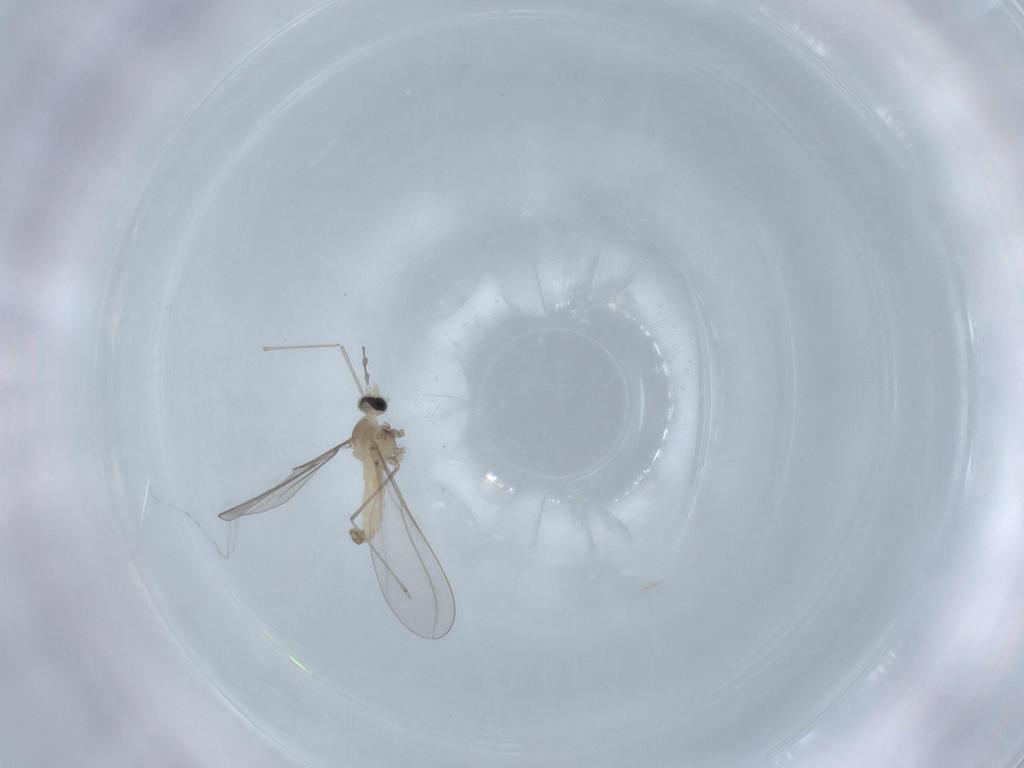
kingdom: Animalia
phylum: Arthropoda
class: Insecta
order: Diptera
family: Cecidomyiidae
